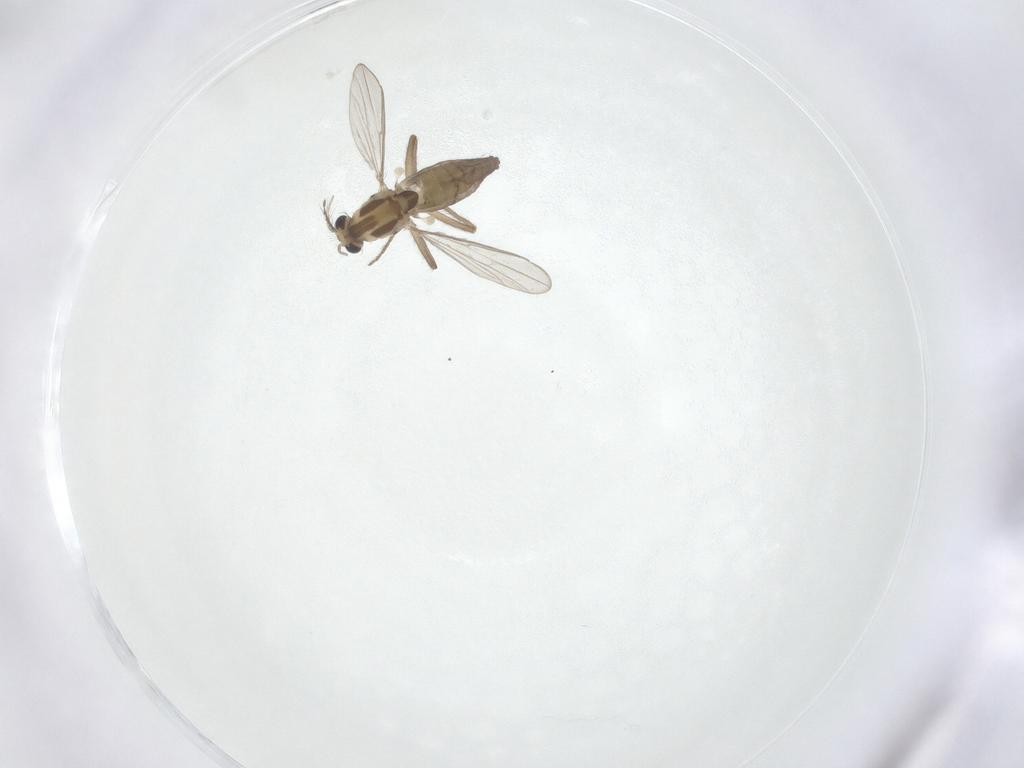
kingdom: Animalia
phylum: Arthropoda
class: Insecta
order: Diptera
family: Chironomidae
